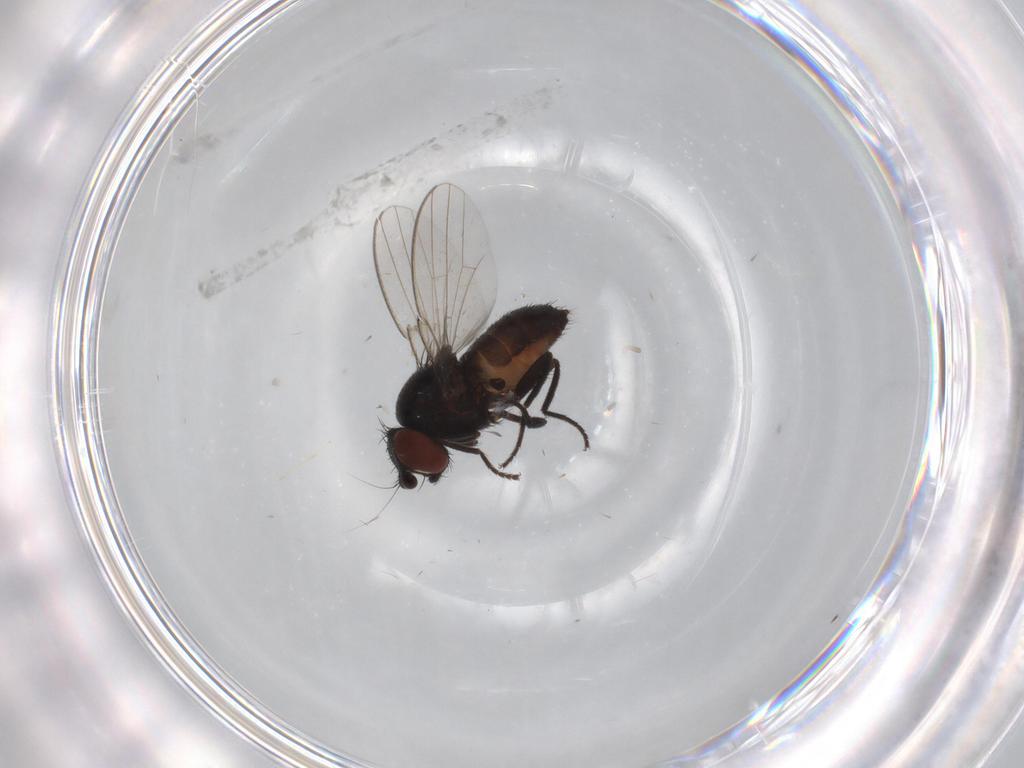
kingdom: Animalia
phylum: Arthropoda
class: Insecta
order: Diptera
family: Milichiidae
